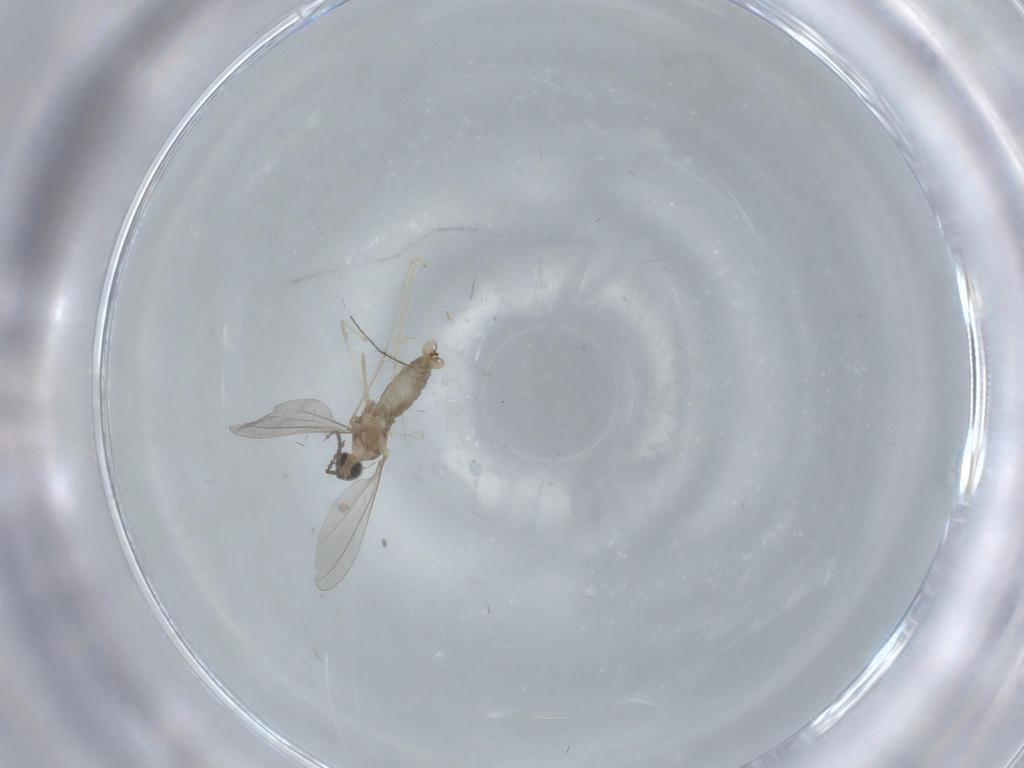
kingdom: Animalia
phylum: Arthropoda
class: Insecta
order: Diptera
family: Cecidomyiidae
